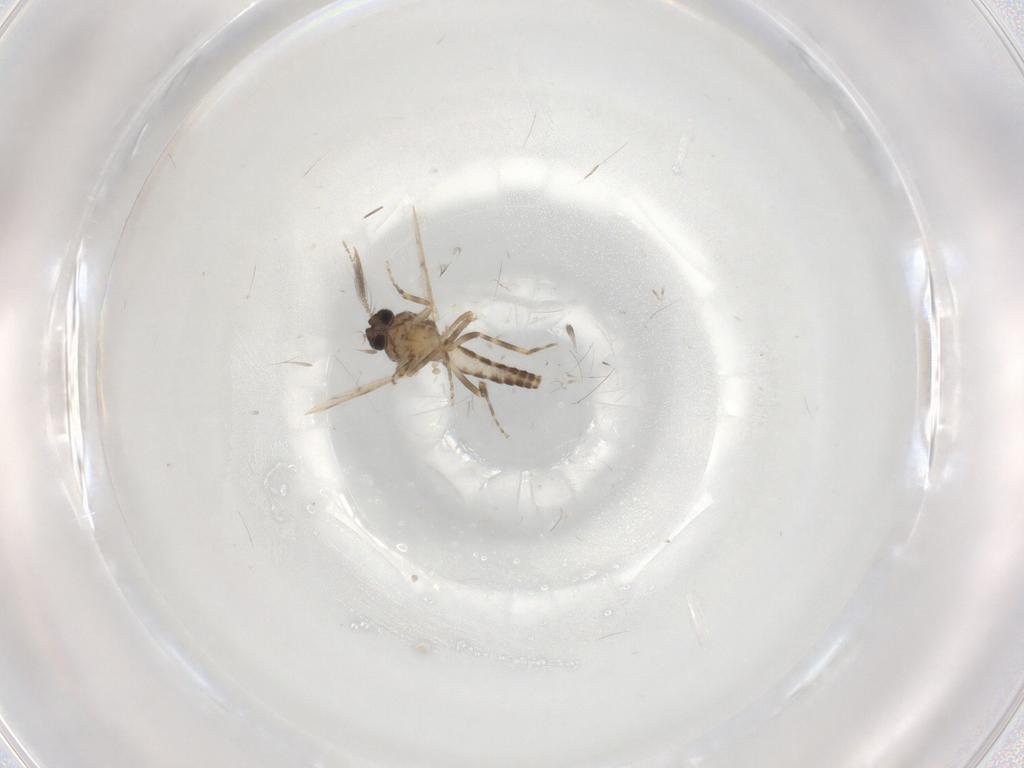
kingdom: Animalia
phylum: Arthropoda
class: Insecta
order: Diptera
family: Ceratopogonidae
